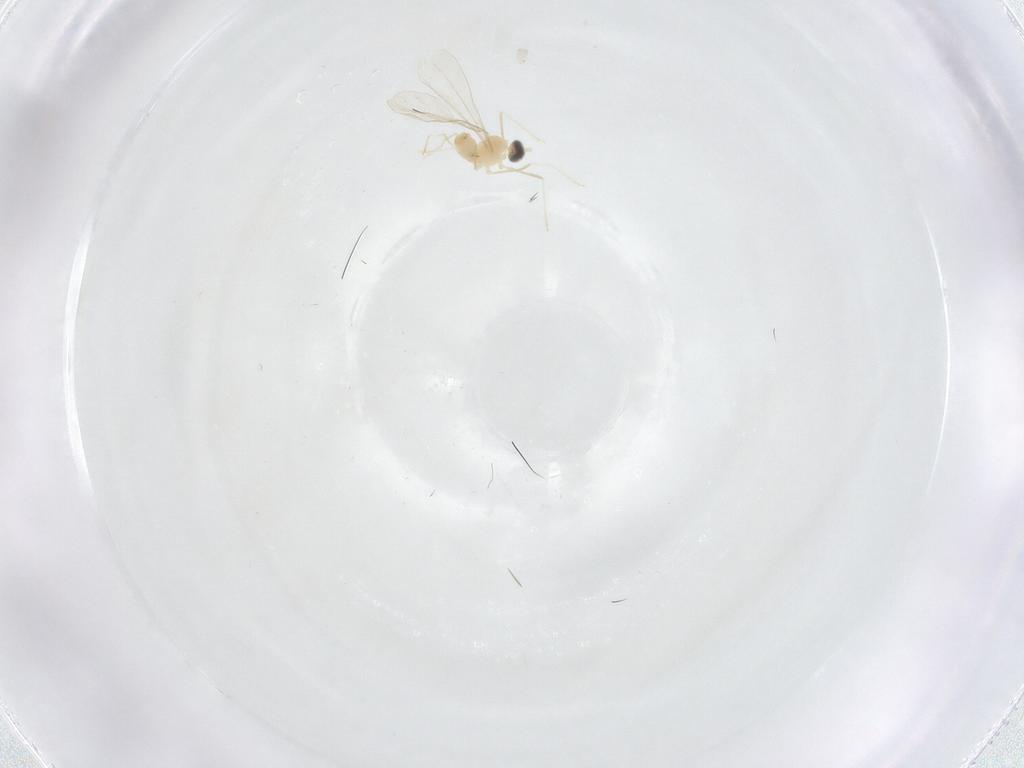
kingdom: Animalia
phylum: Arthropoda
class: Insecta
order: Diptera
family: Tabanidae
